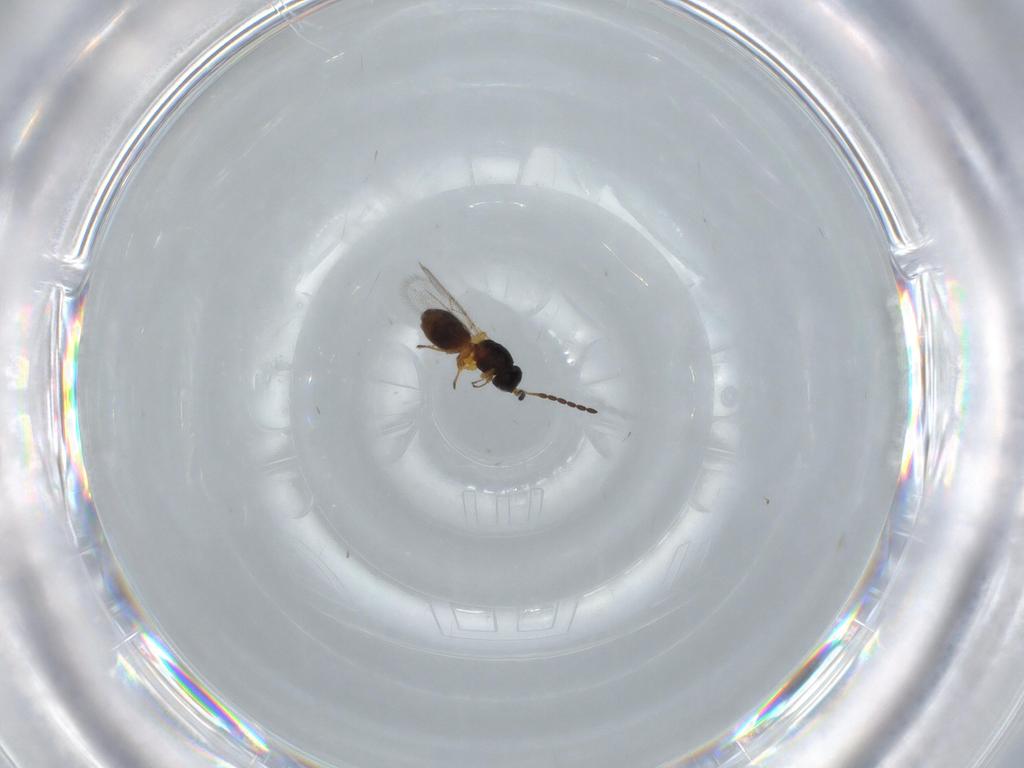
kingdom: Animalia
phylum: Arthropoda
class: Insecta
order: Hymenoptera
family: Figitidae
